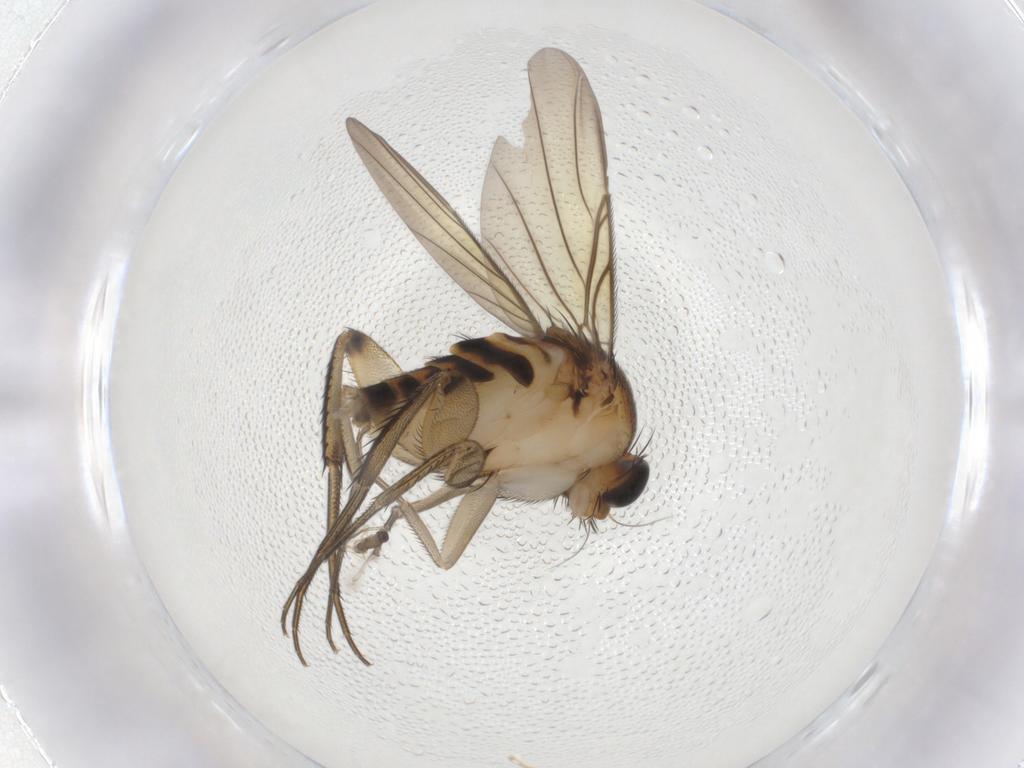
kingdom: Animalia
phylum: Arthropoda
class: Insecta
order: Diptera
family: Phoridae
